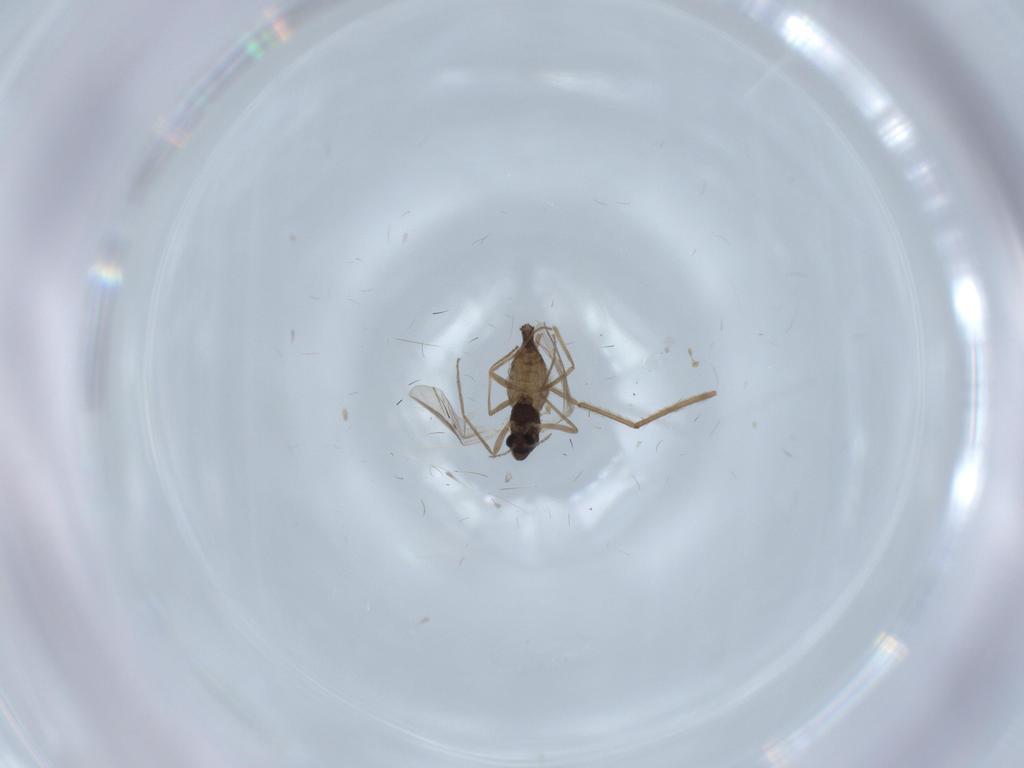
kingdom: Animalia
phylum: Arthropoda
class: Insecta
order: Diptera
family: Chironomidae
